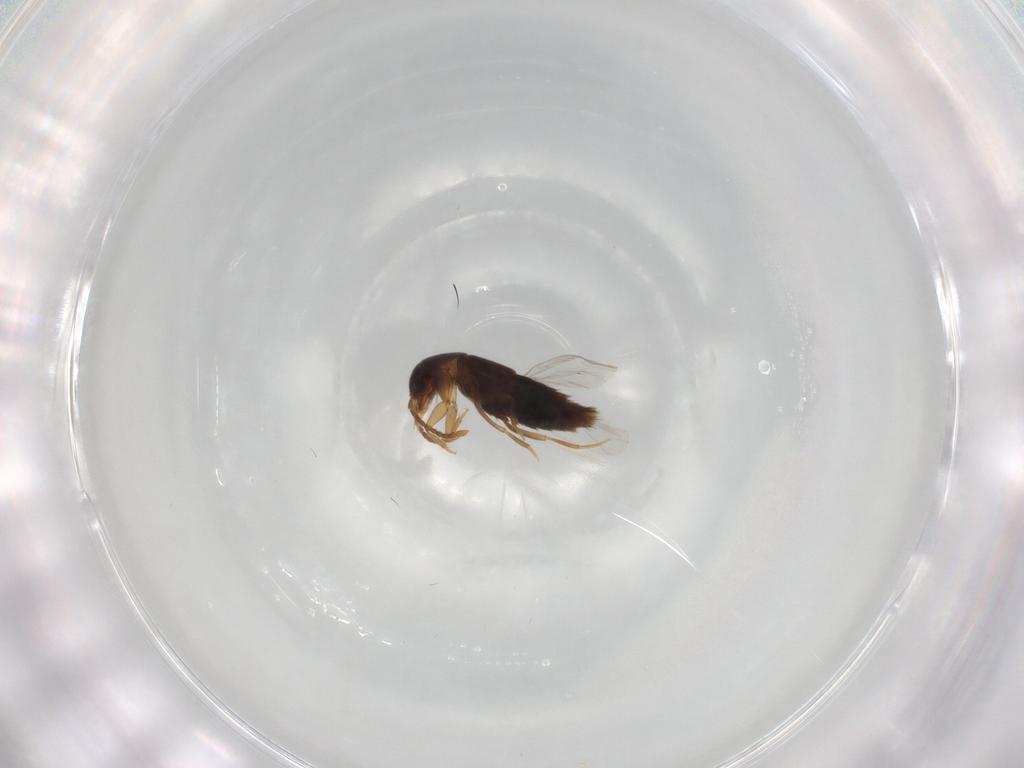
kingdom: Animalia
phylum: Arthropoda
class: Insecta
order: Coleoptera
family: Staphylinidae
